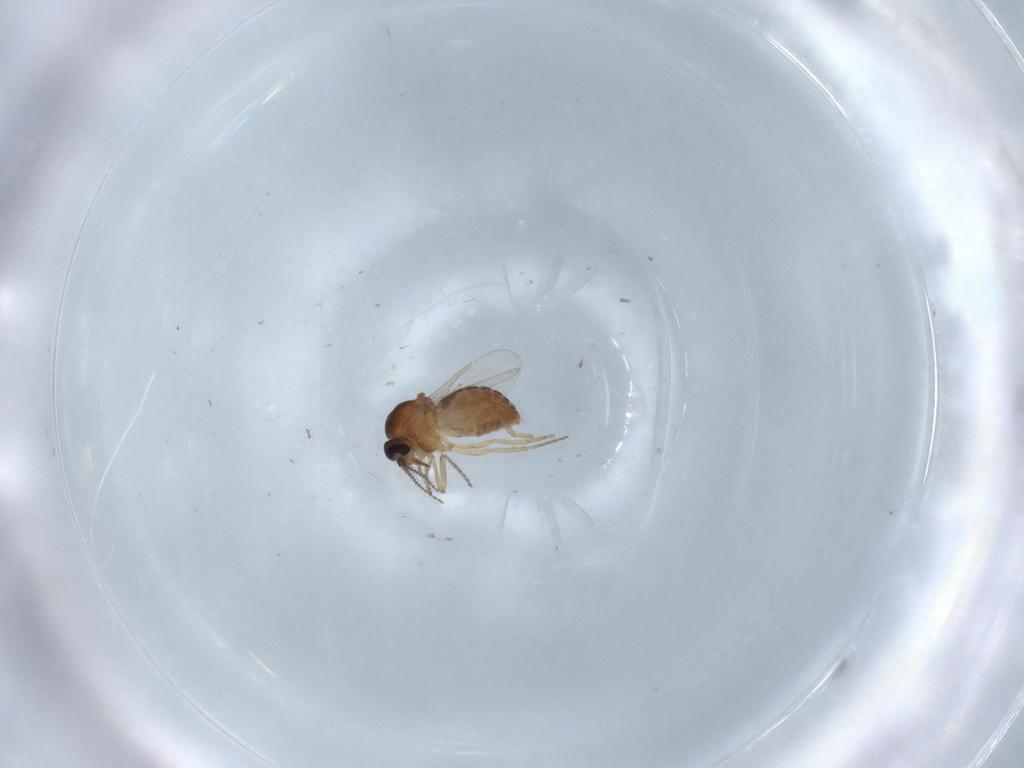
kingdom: Animalia
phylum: Arthropoda
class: Insecta
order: Diptera
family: Ceratopogonidae
